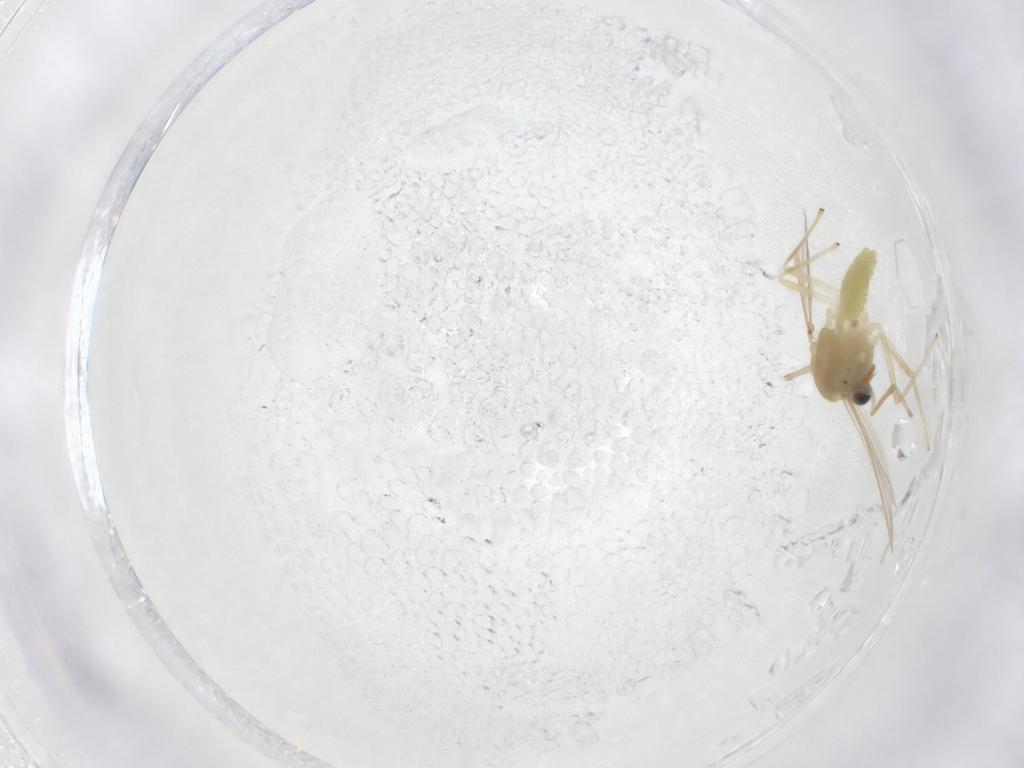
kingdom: Animalia
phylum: Arthropoda
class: Insecta
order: Diptera
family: Chironomidae
